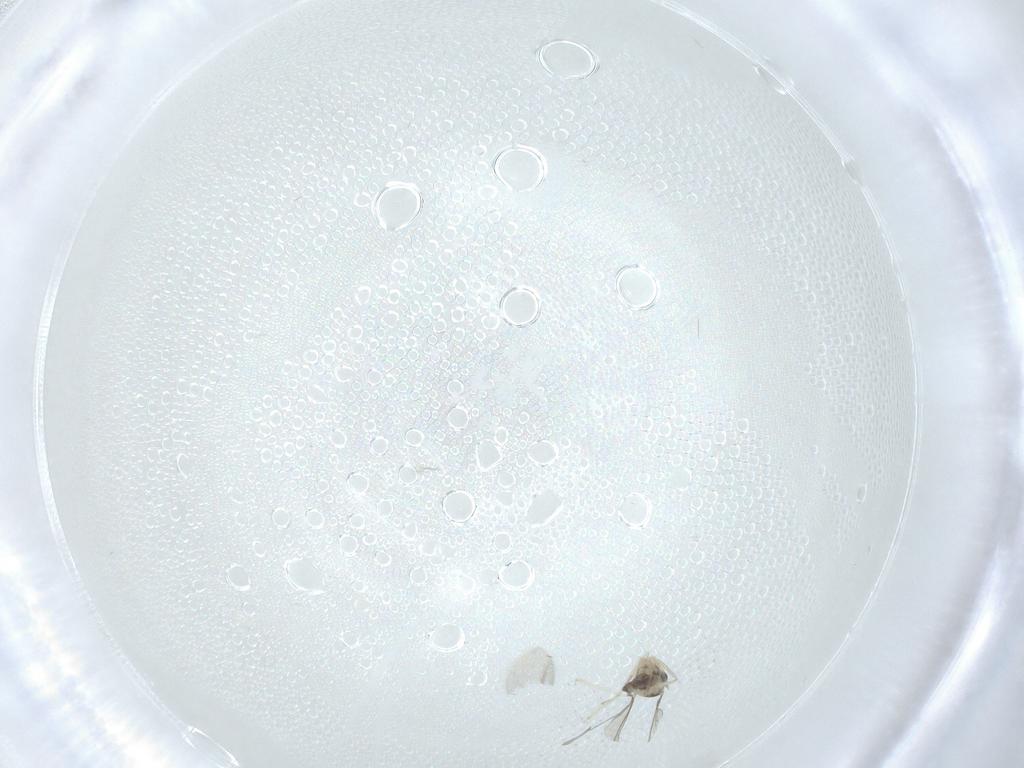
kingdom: Animalia
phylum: Arthropoda
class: Insecta
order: Diptera
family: Cecidomyiidae
